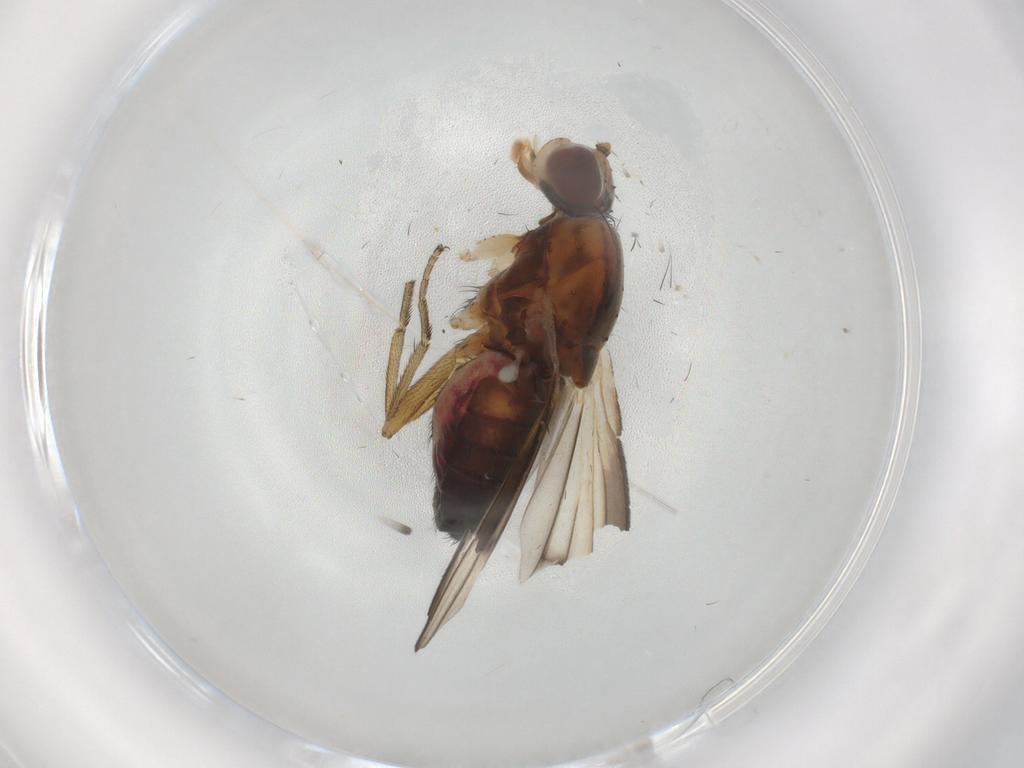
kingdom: Animalia
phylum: Arthropoda
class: Insecta
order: Diptera
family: Heleomyzidae
